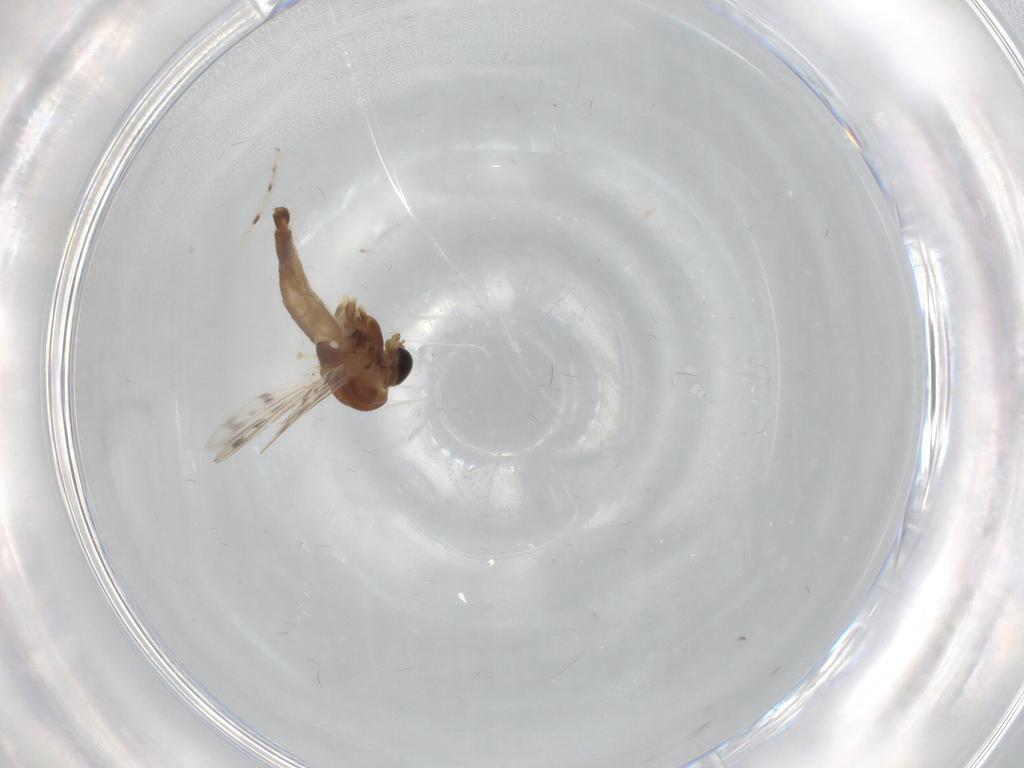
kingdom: Animalia
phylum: Arthropoda
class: Insecta
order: Diptera
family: Chironomidae
